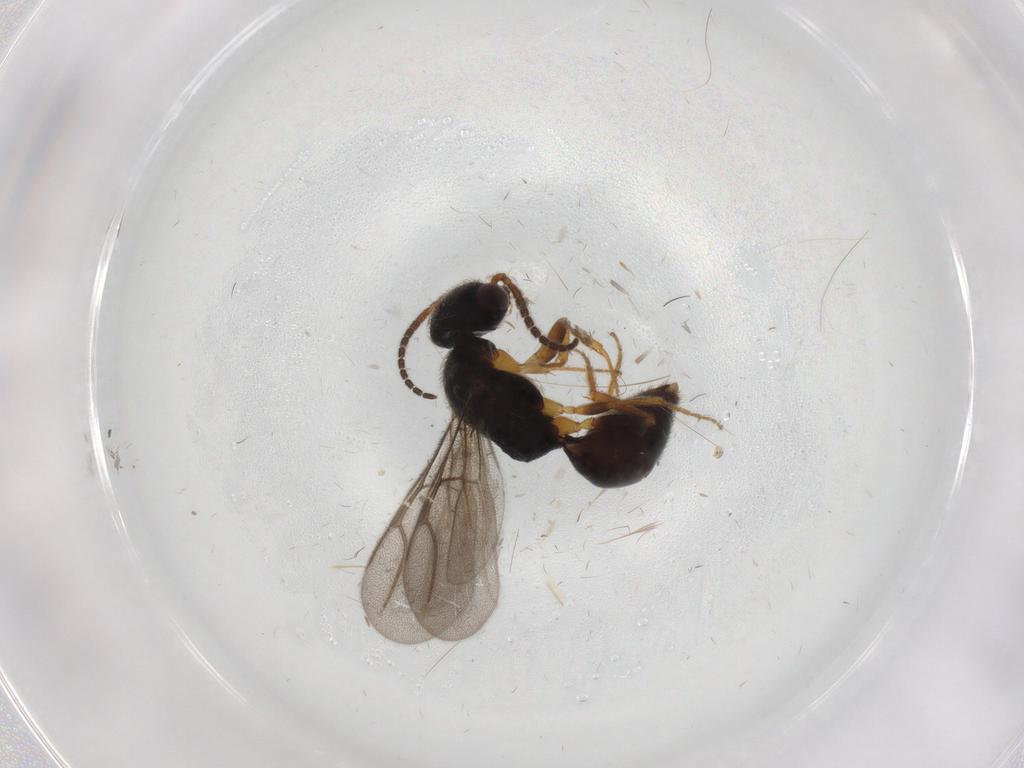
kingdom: Animalia
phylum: Arthropoda
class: Insecta
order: Hymenoptera
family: Bethylidae
